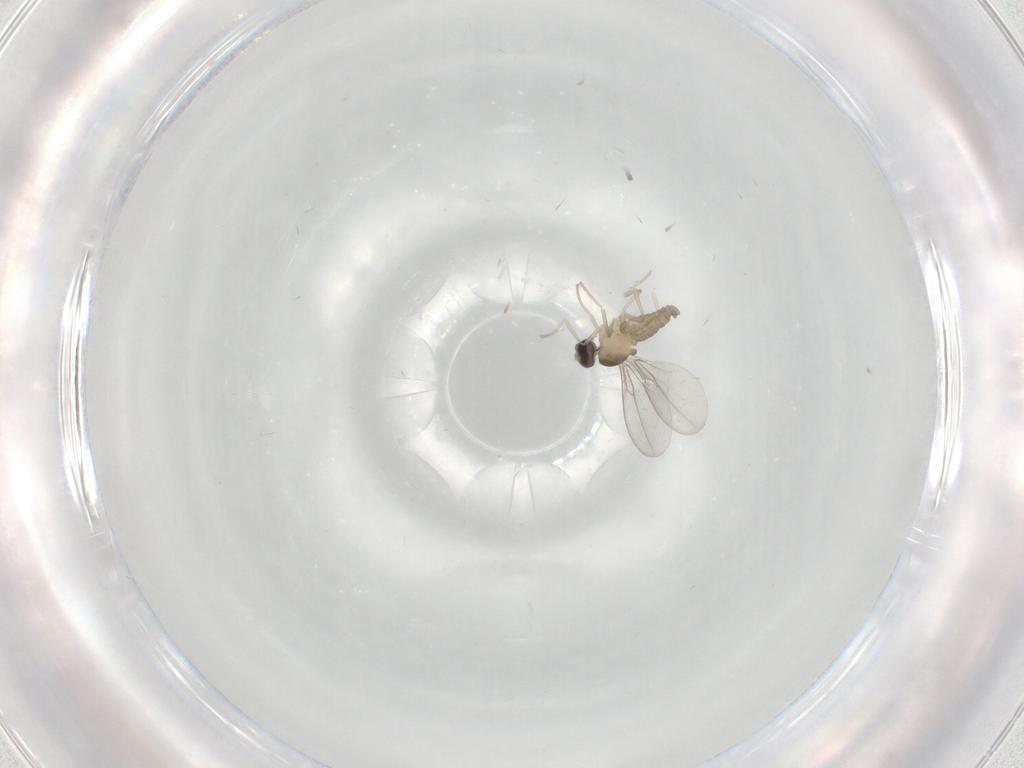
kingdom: Animalia
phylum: Arthropoda
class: Insecta
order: Diptera
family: Cecidomyiidae
